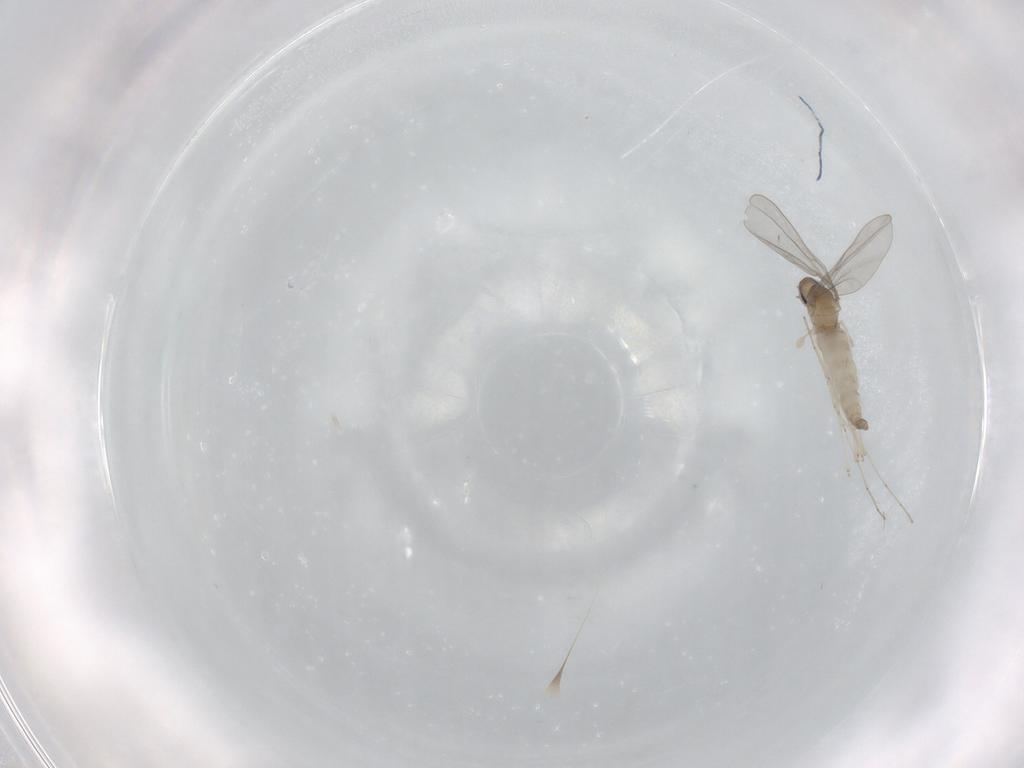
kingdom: Animalia
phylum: Arthropoda
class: Insecta
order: Diptera
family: Cecidomyiidae
